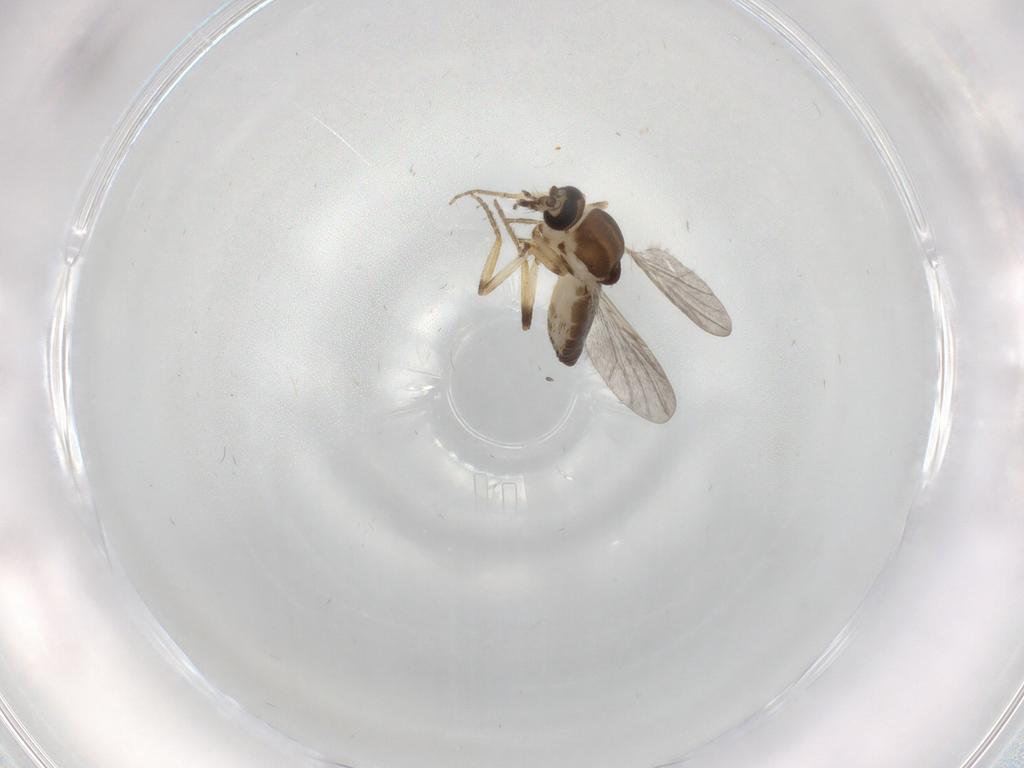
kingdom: Animalia
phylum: Arthropoda
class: Insecta
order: Diptera
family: Ceratopogonidae
